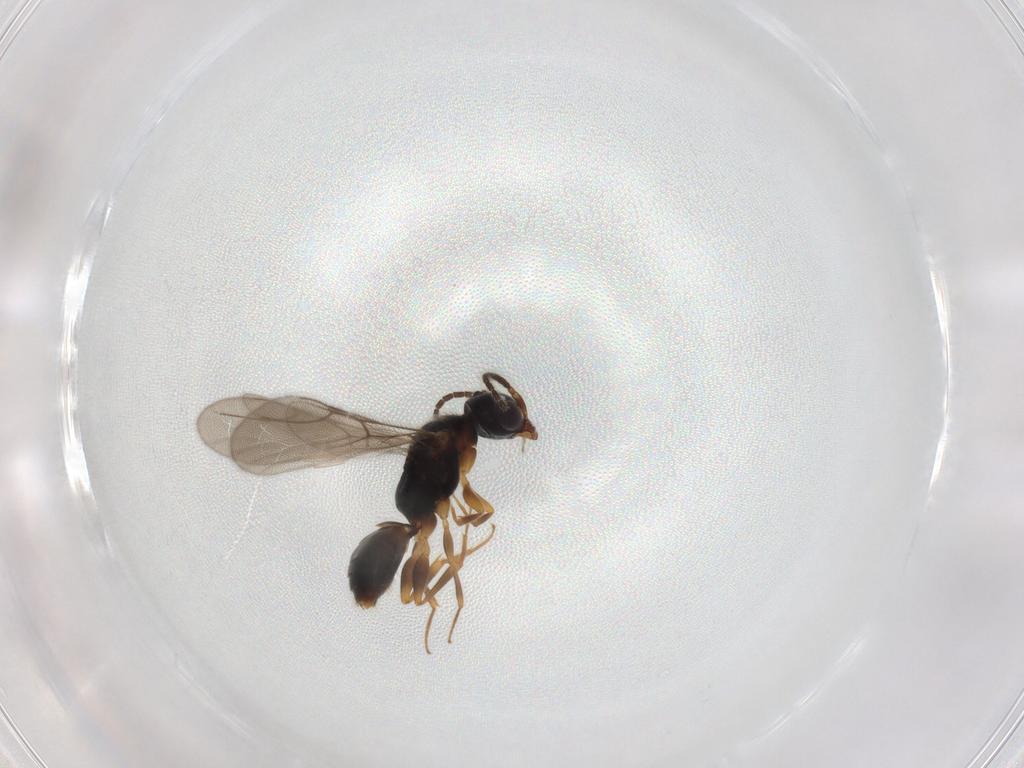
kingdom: Animalia
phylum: Arthropoda
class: Insecta
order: Hymenoptera
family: Bethylidae
